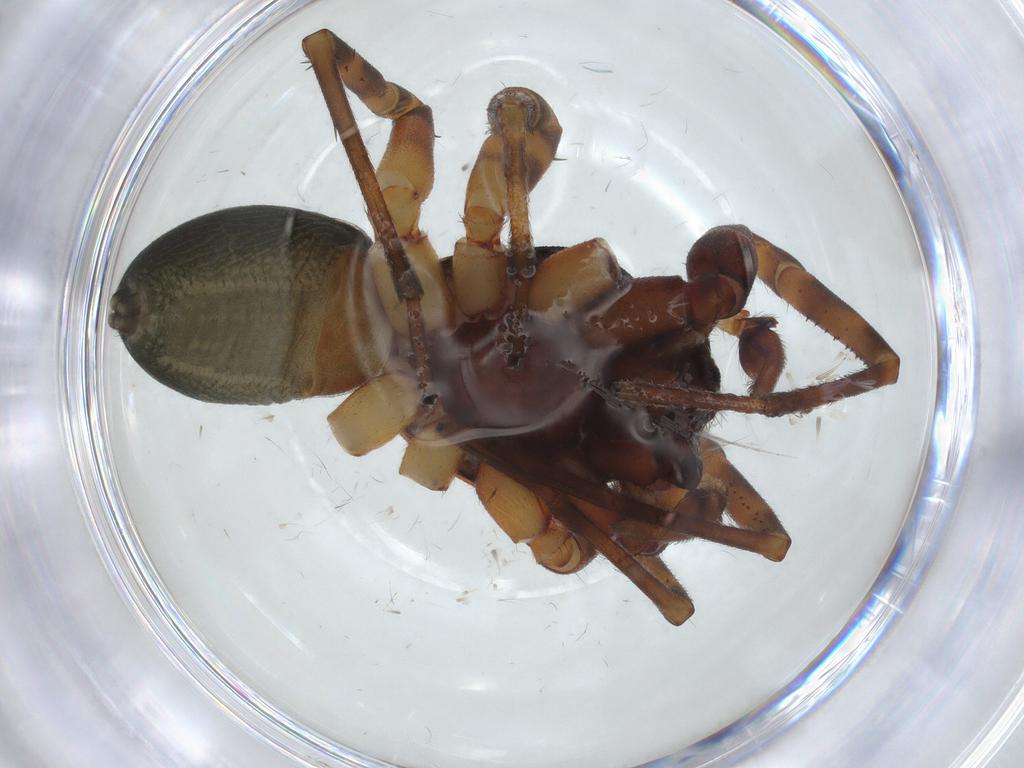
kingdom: Animalia
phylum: Arthropoda
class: Arachnida
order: Araneae
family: Trachelidae
